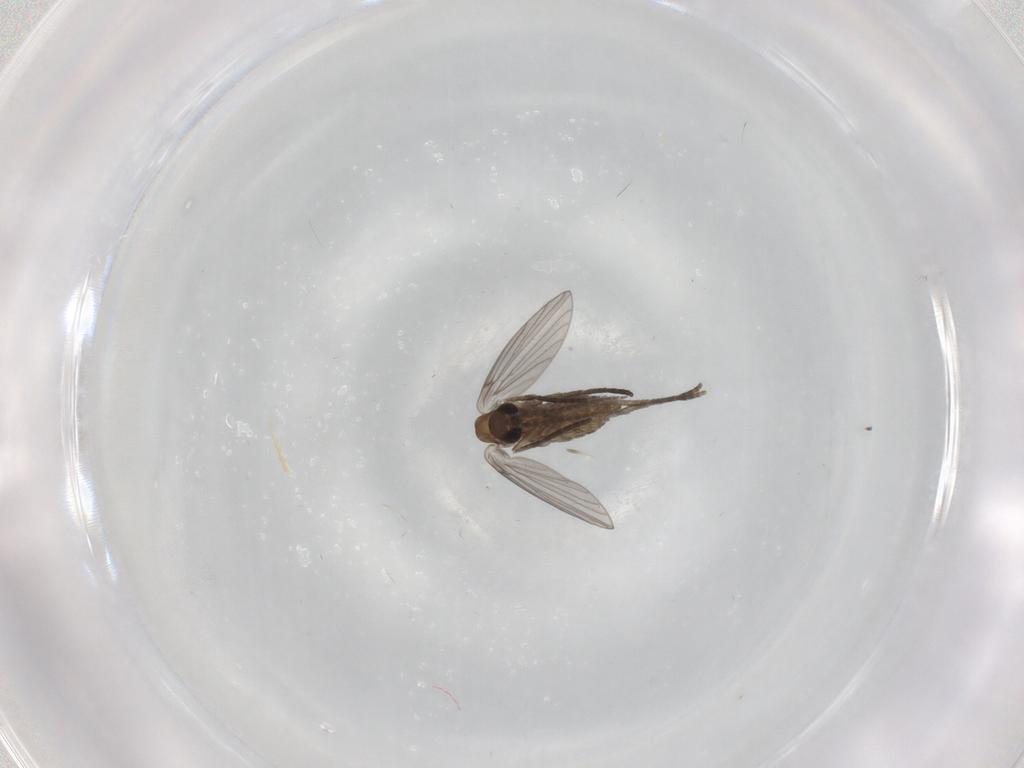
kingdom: Animalia
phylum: Arthropoda
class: Insecta
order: Diptera
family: Psychodidae
